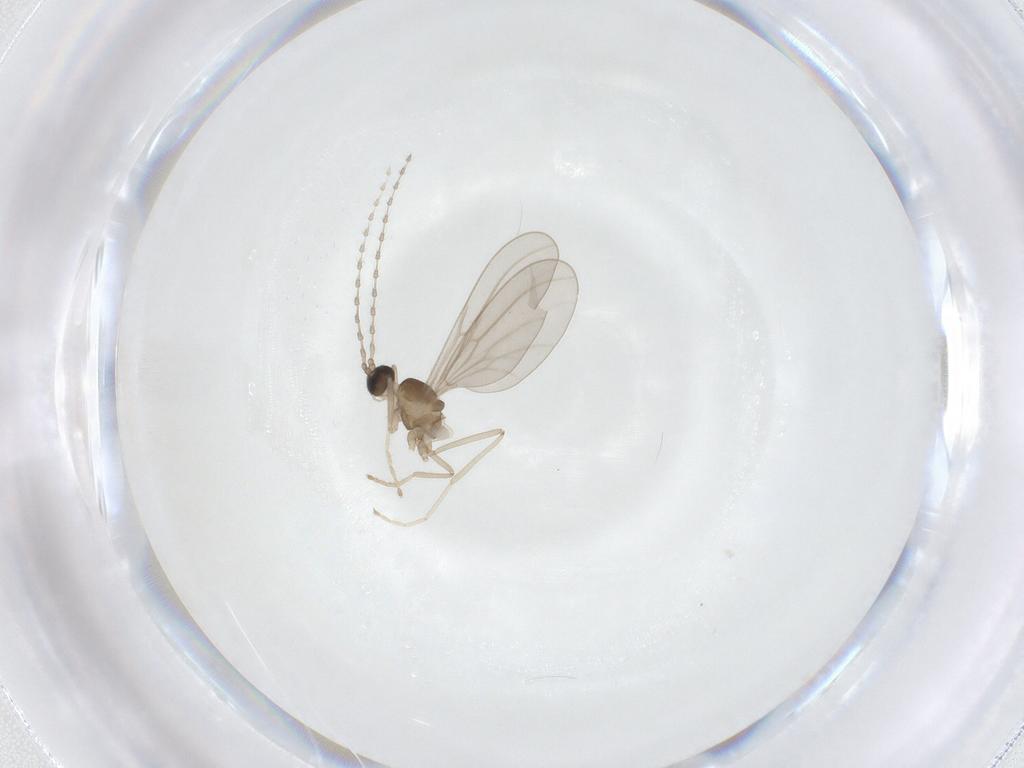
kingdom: Animalia
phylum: Arthropoda
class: Insecta
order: Diptera
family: Cecidomyiidae
